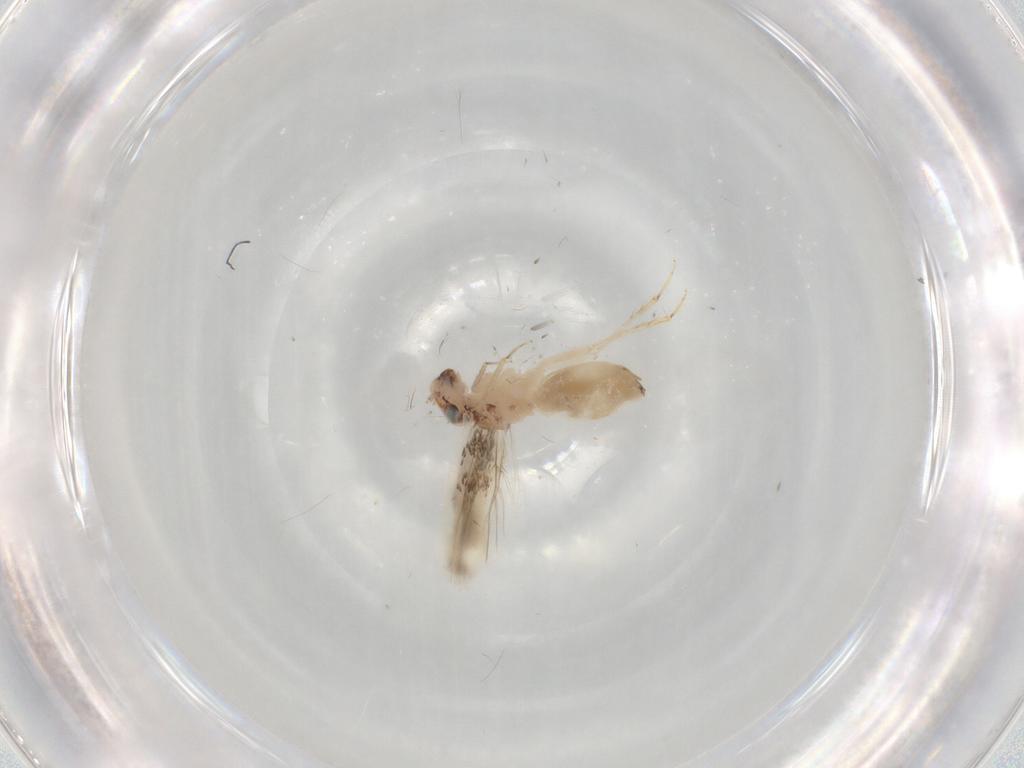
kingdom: Animalia
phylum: Arthropoda
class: Insecta
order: Psocodea
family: Lepidopsocidae
